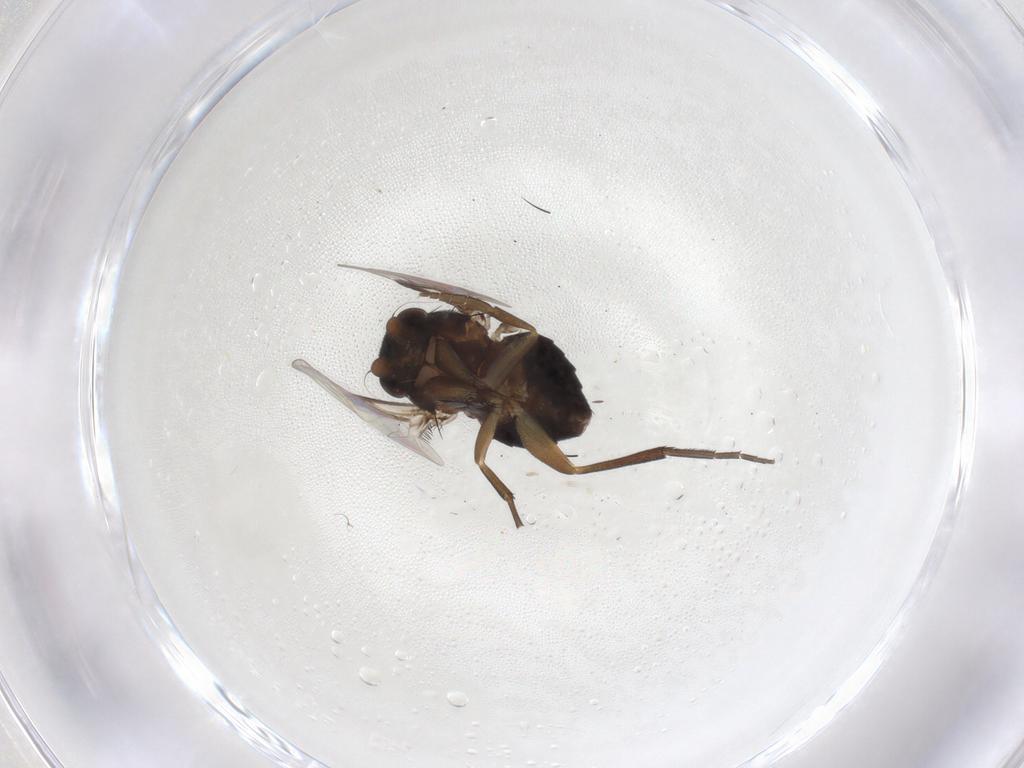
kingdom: Animalia
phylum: Arthropoda
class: Insecta
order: Diptera
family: Phoridae
